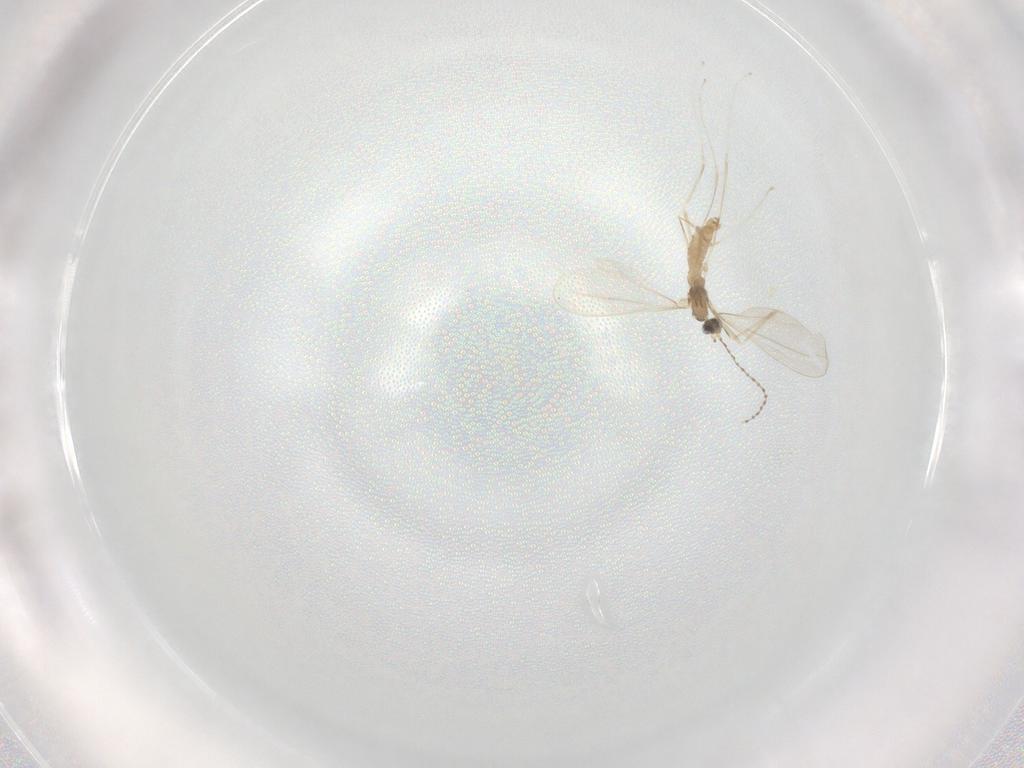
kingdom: Animalia
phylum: Arthropoda
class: Insecta
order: Diptera
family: Cecidomyiidae
